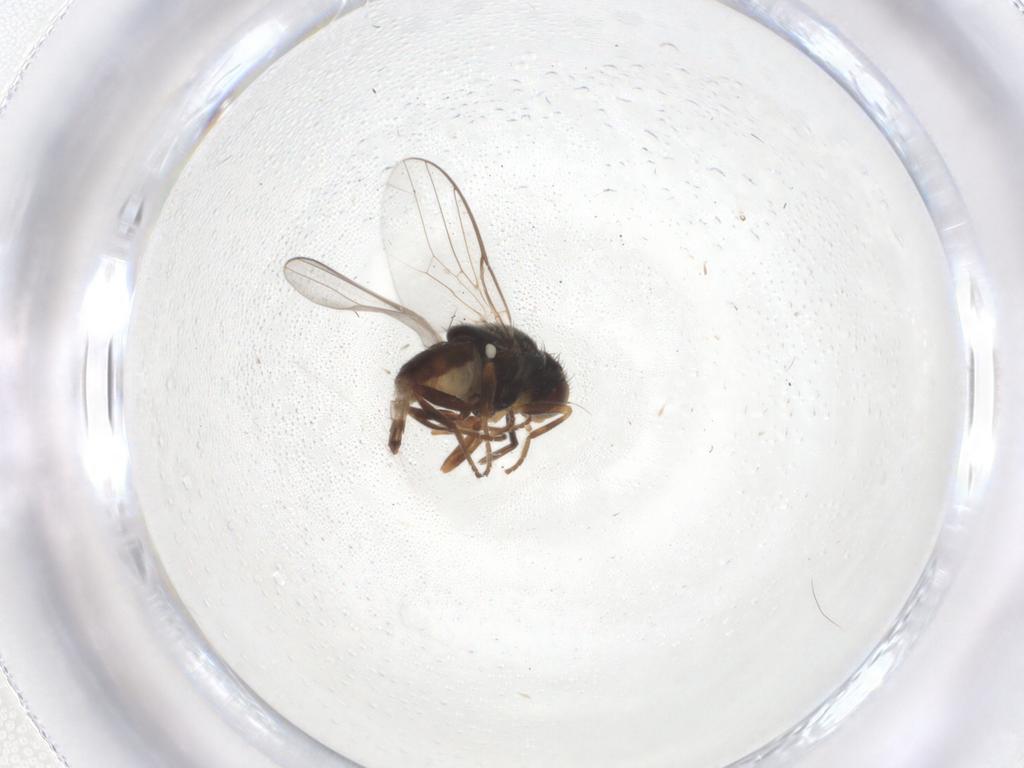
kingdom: Animalia
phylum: Arthropoda
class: Insecta
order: Diptera
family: Chloropidae
